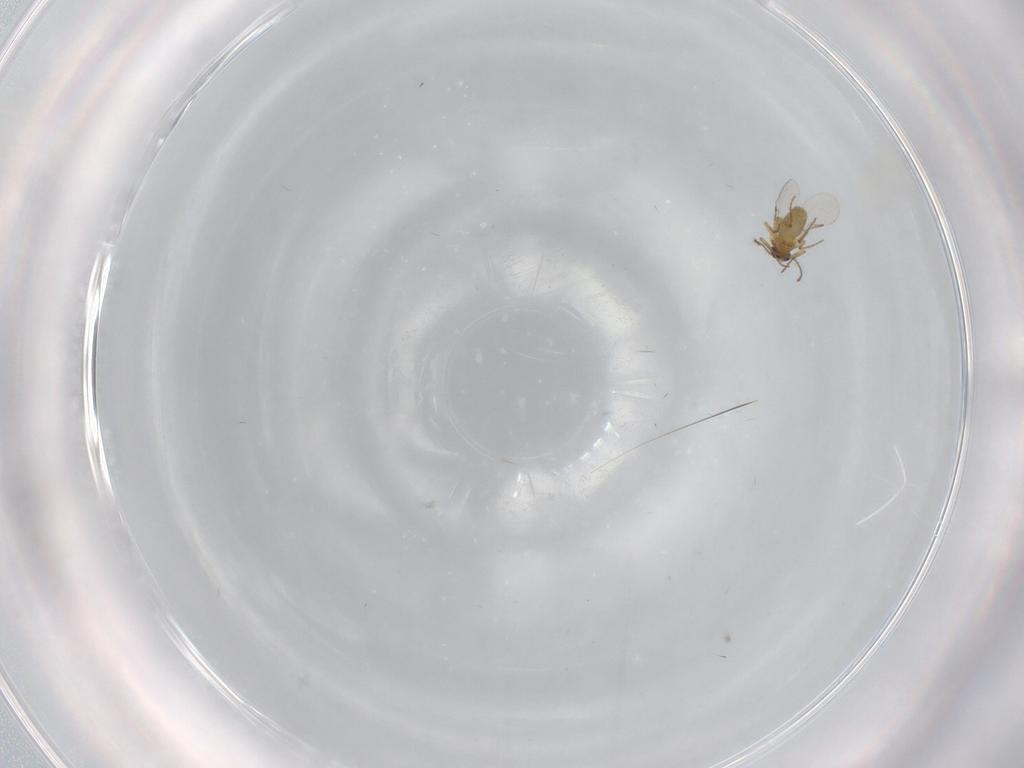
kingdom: Animalia
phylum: Arthropoda
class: Insecta
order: Diptera
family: Ceratopogonidae
